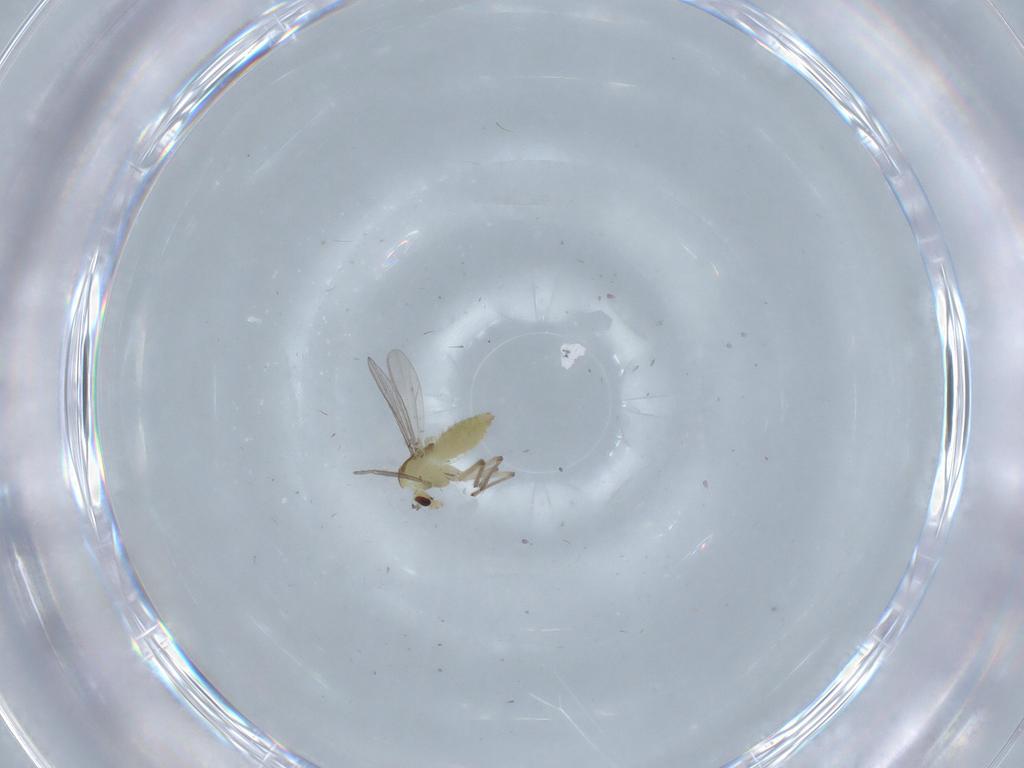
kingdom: Animalia
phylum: Arthropoda
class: Insecta
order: Diptera
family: Chironomidae
